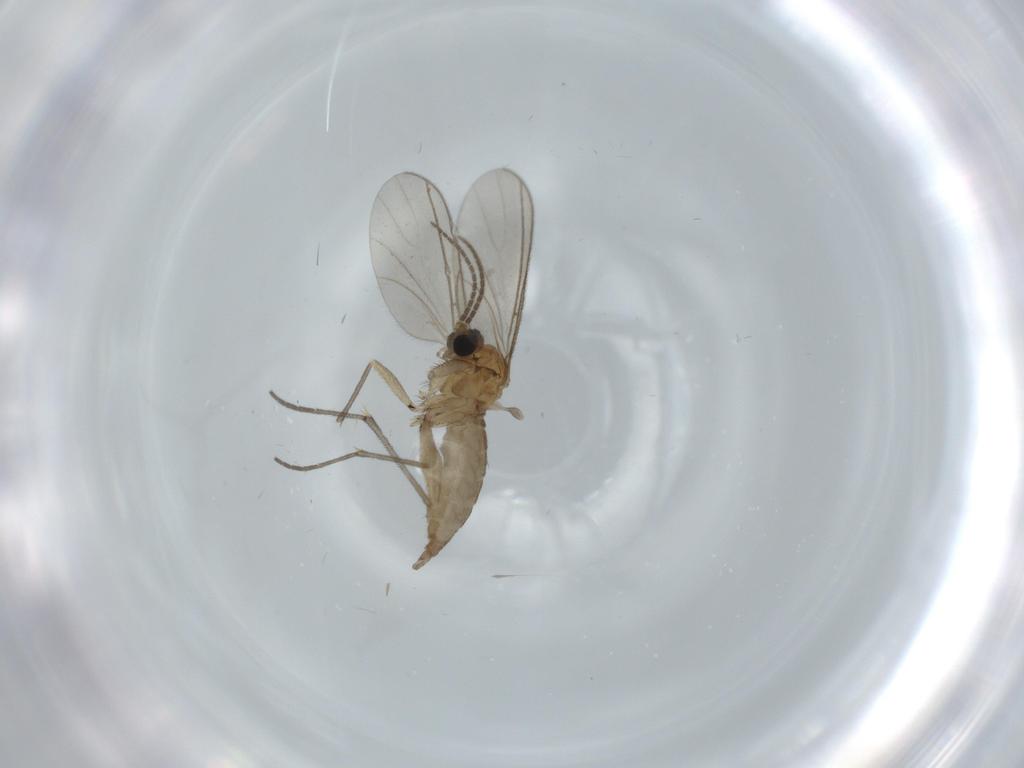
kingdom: Animalia
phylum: Arthropoda
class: Insecta
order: Diptera
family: Sciaridae
